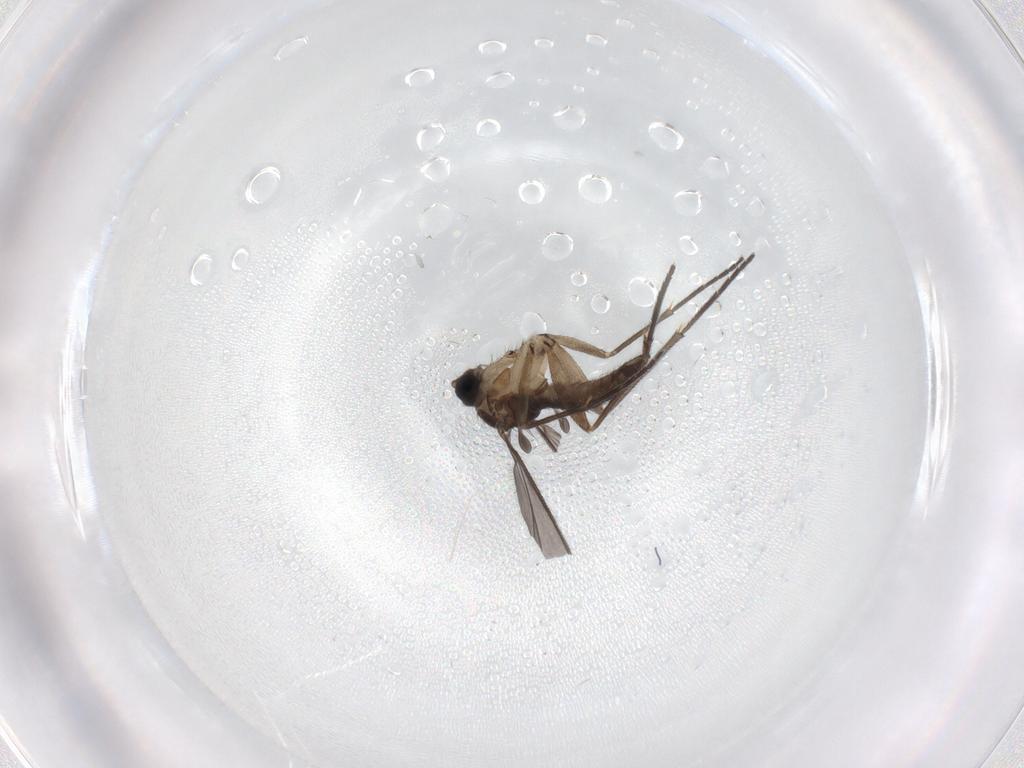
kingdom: Animalia
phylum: Arthropoda
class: Insecta
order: Diptera
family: Sciaridae
